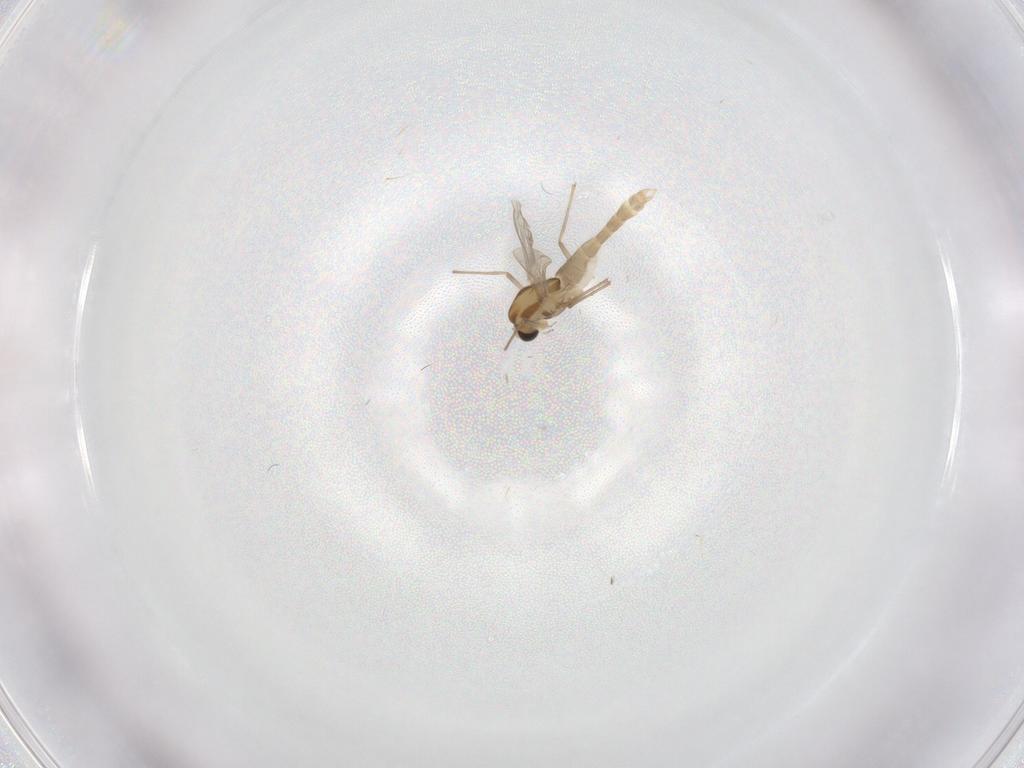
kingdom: Animalia
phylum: Arthropoda
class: Insecta
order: Diptera
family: Chironomidae
